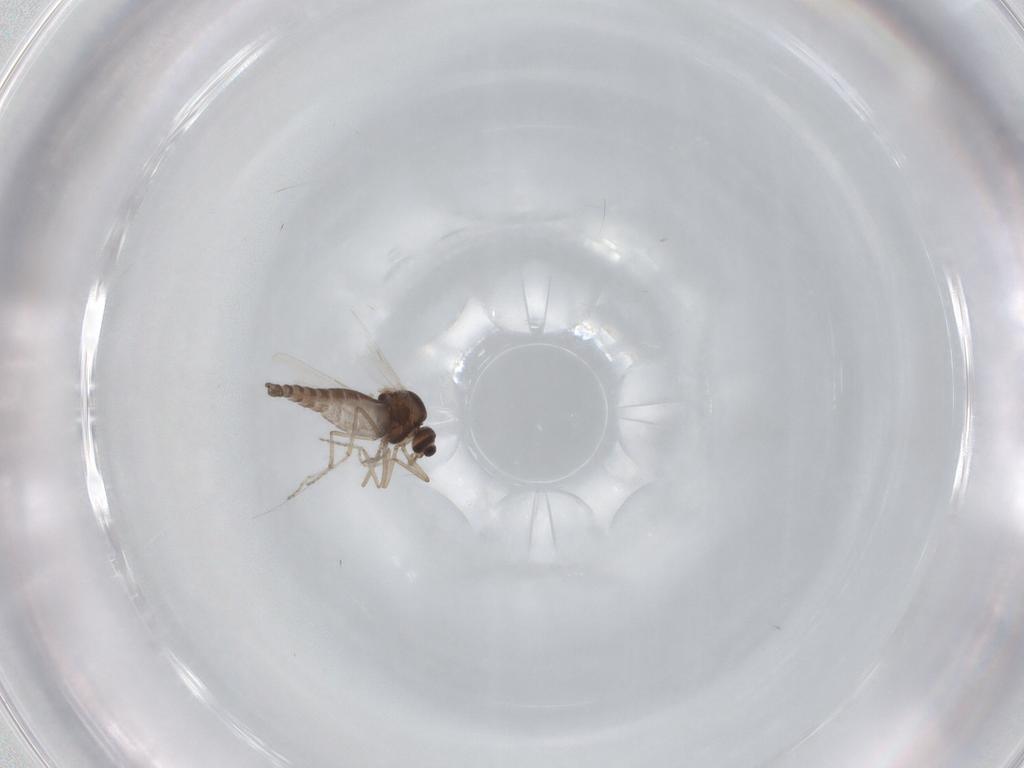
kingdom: Animalia
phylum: Arthropoda
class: Insecta
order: Diptera
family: Ceratopogonidae
